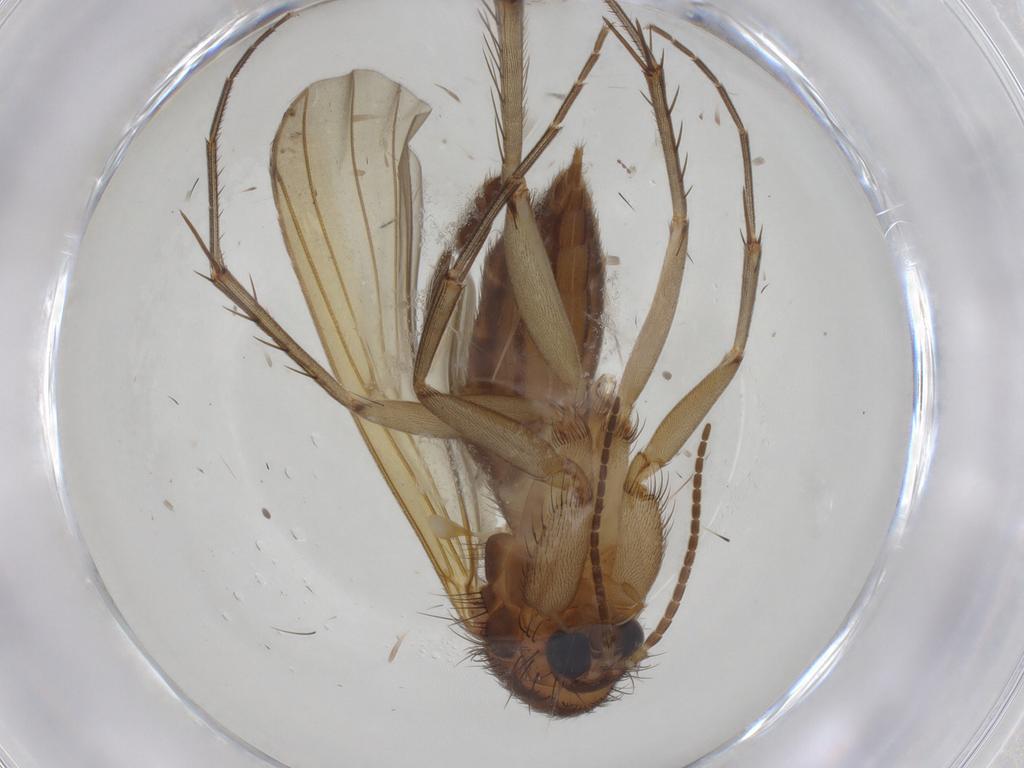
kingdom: Animalia
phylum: Arthropoda
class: Insecta
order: Diptera
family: Mycetophilidae
